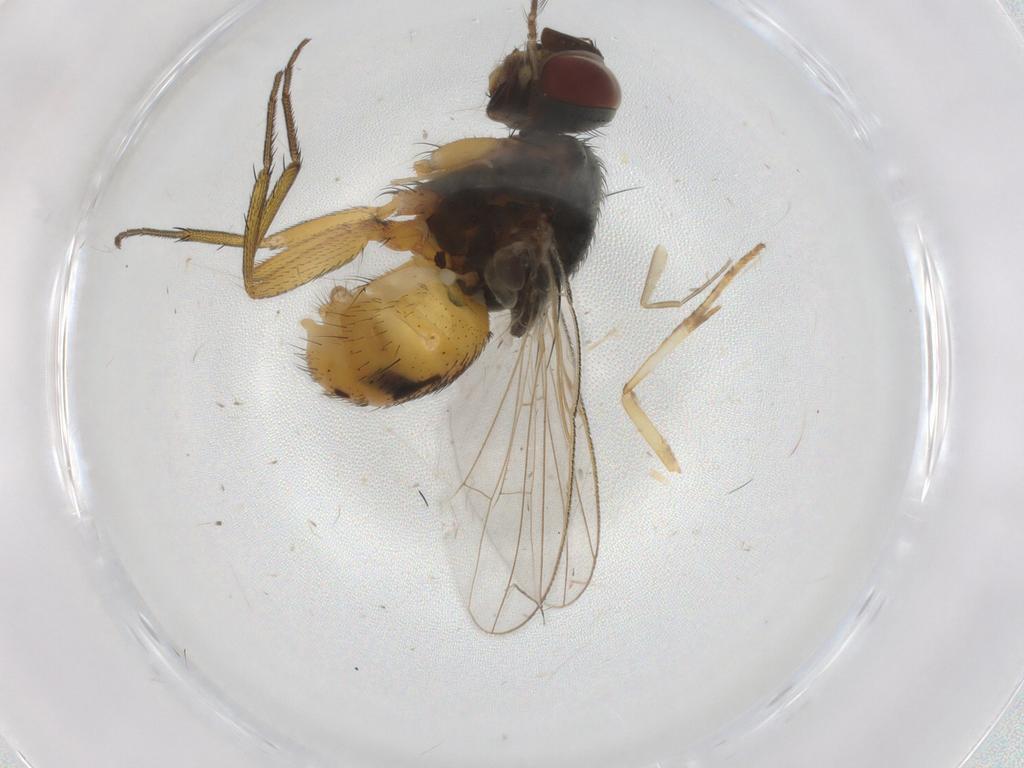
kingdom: Animalia
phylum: Arthropoda
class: Insecta
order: Diptera
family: Muscidae
